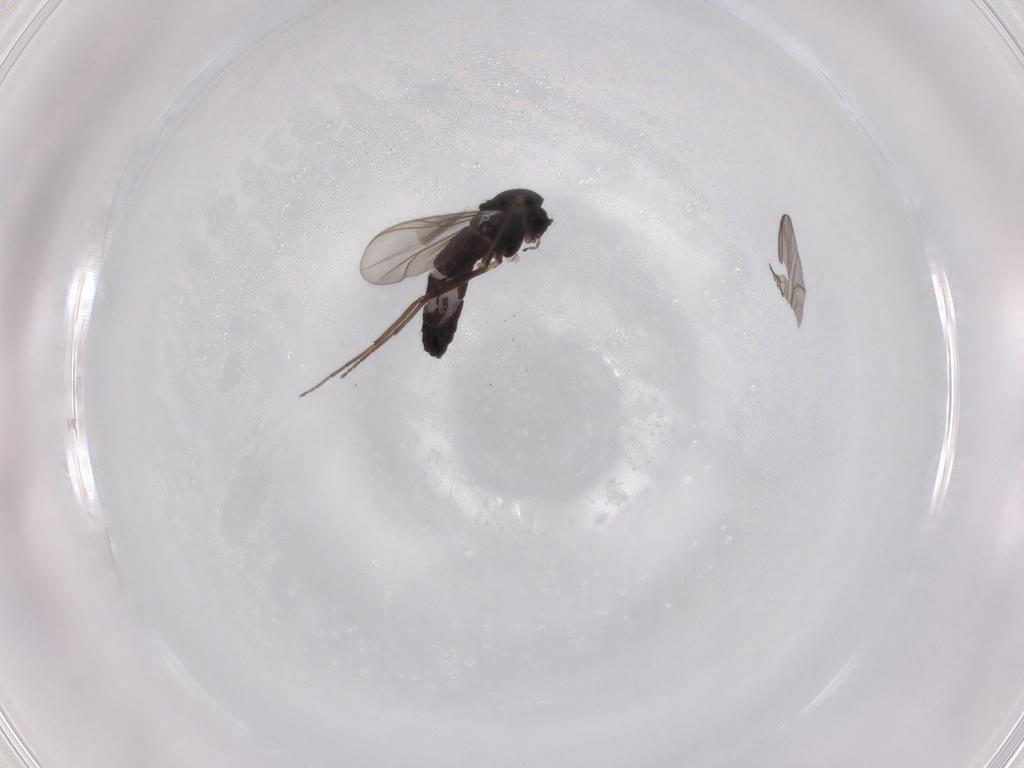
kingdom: Animalia
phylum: Arthropoda
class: Insecta
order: Diptera
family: Chironomidae
